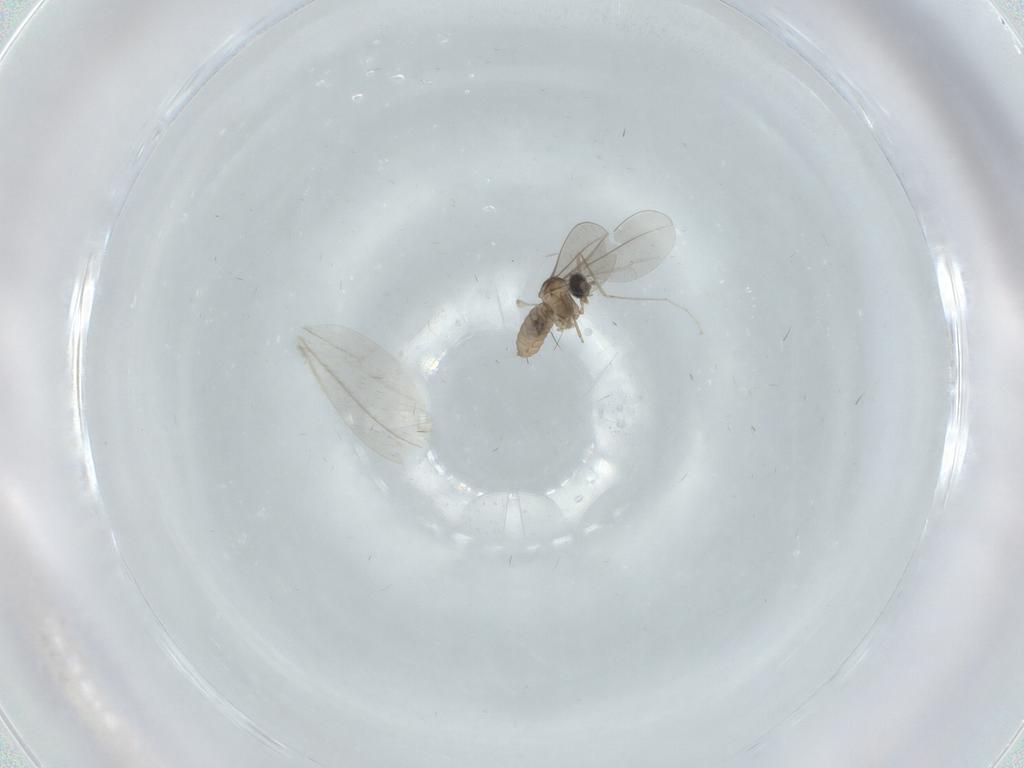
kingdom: Animalia
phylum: Arthropoda
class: Insecta
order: Diptera
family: Cecidomyiidae
